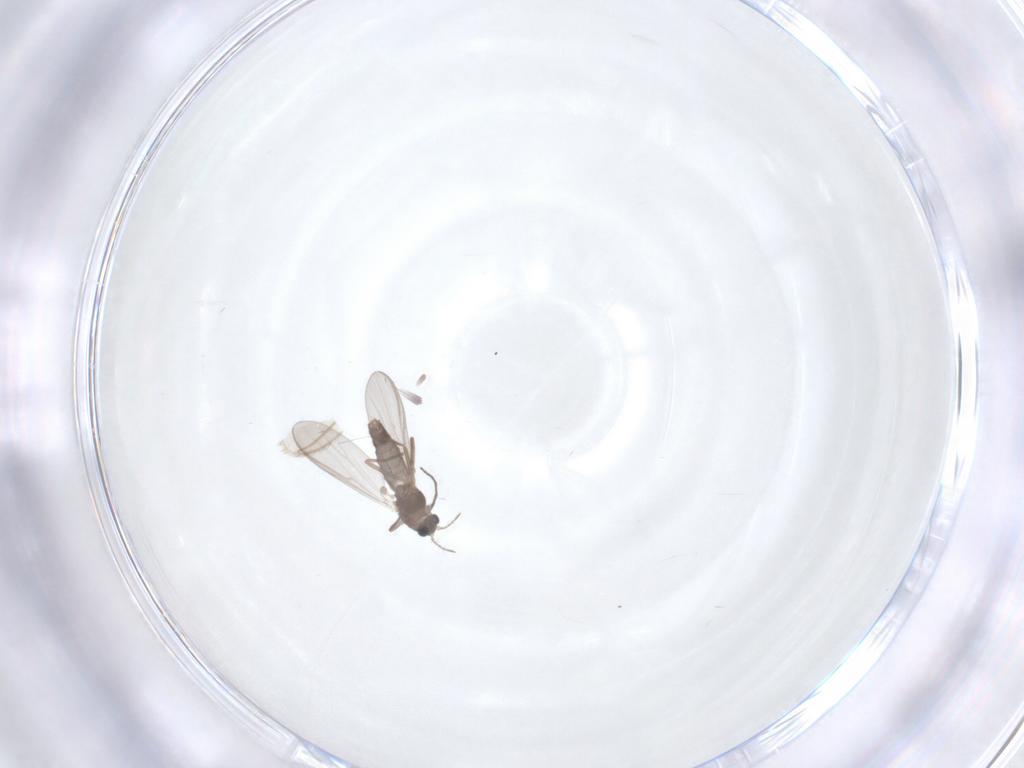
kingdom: Animalia
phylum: Arthropoda
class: Insecta
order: Diptera
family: Chironomidae
